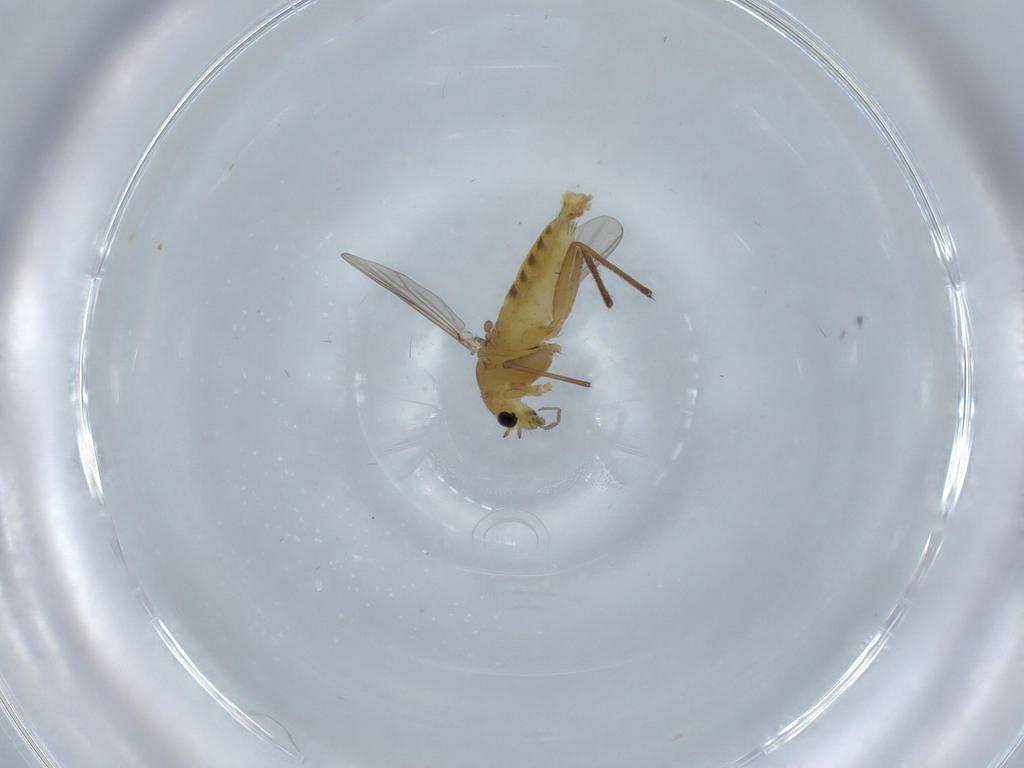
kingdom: Animalia
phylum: Arthropoda
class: Insecta
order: Diptera
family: Chironomidae
